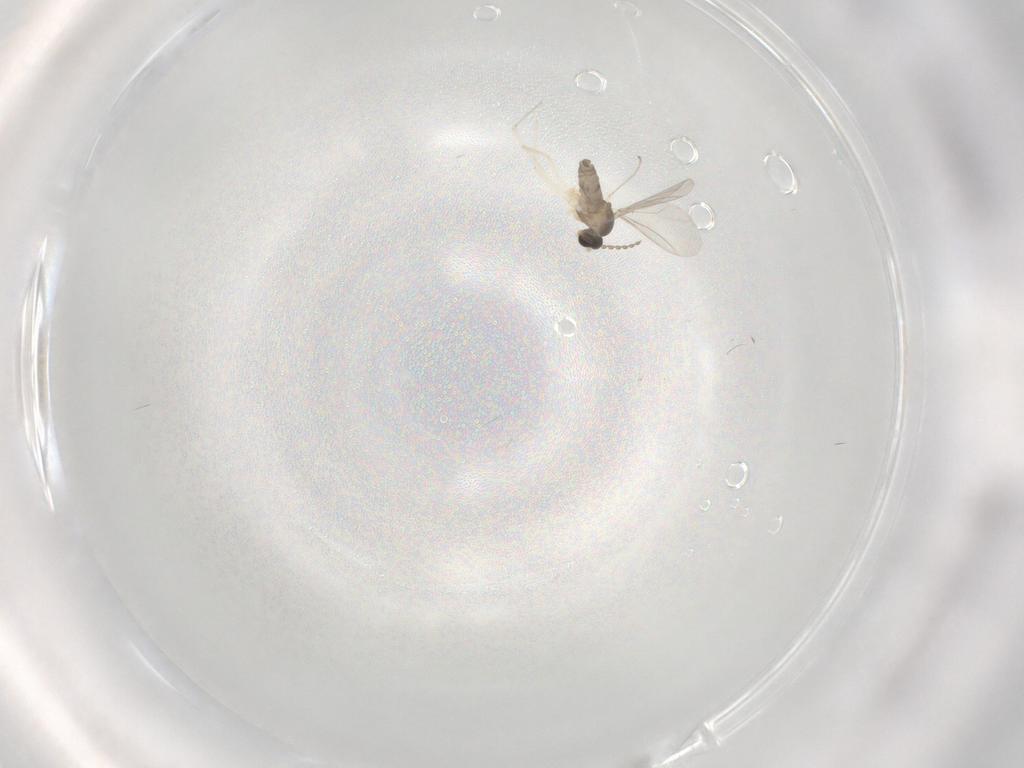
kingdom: Animalia
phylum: Arthropoda
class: Insecta
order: Diptera
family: Cecidomyiidae
